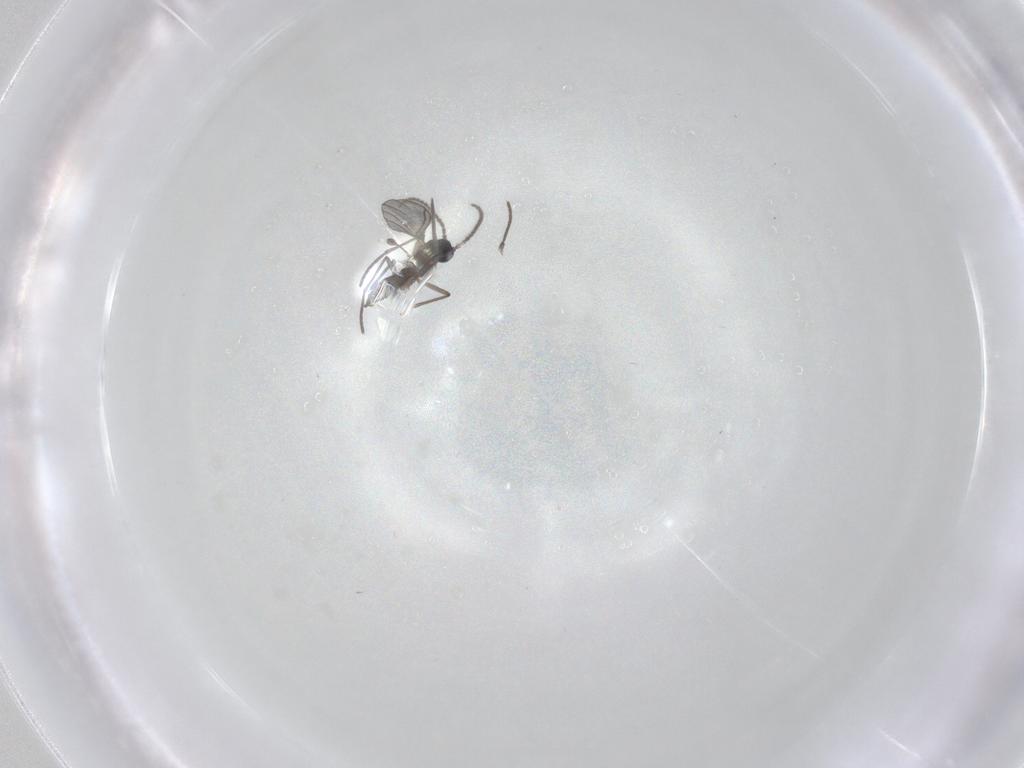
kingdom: Animalia
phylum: Arthropoda
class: Insecta
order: Diptera
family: Sciaridae
